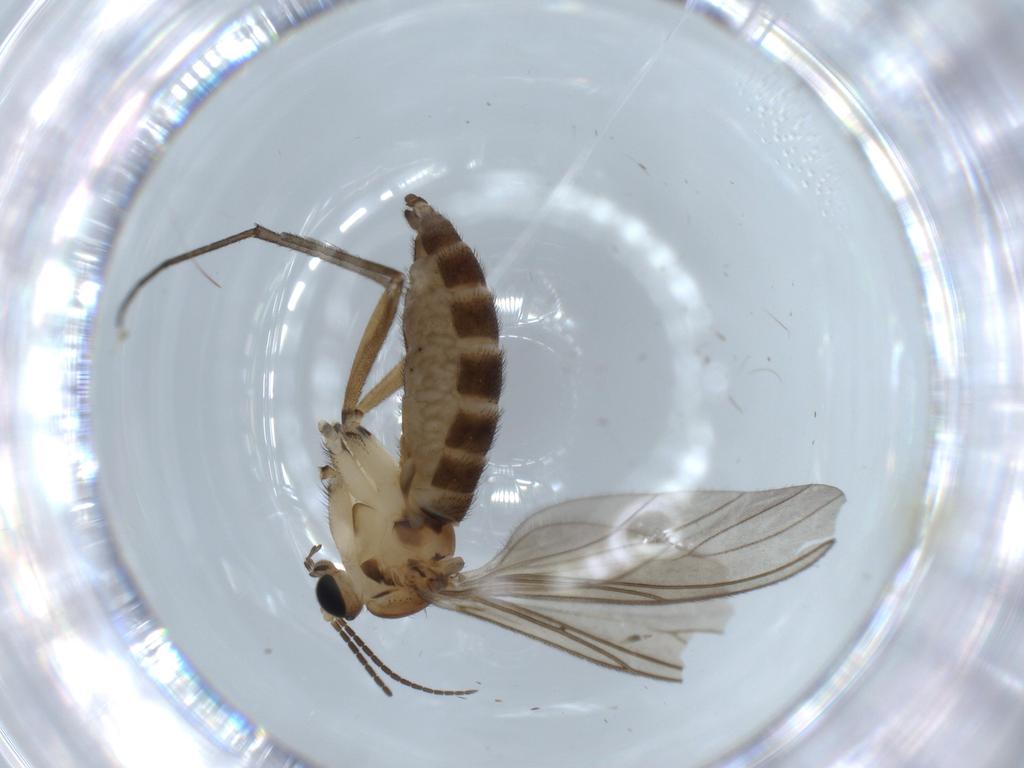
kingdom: Animalia
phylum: Arthropoda
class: Insecta
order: Diptera
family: Sciaridae
